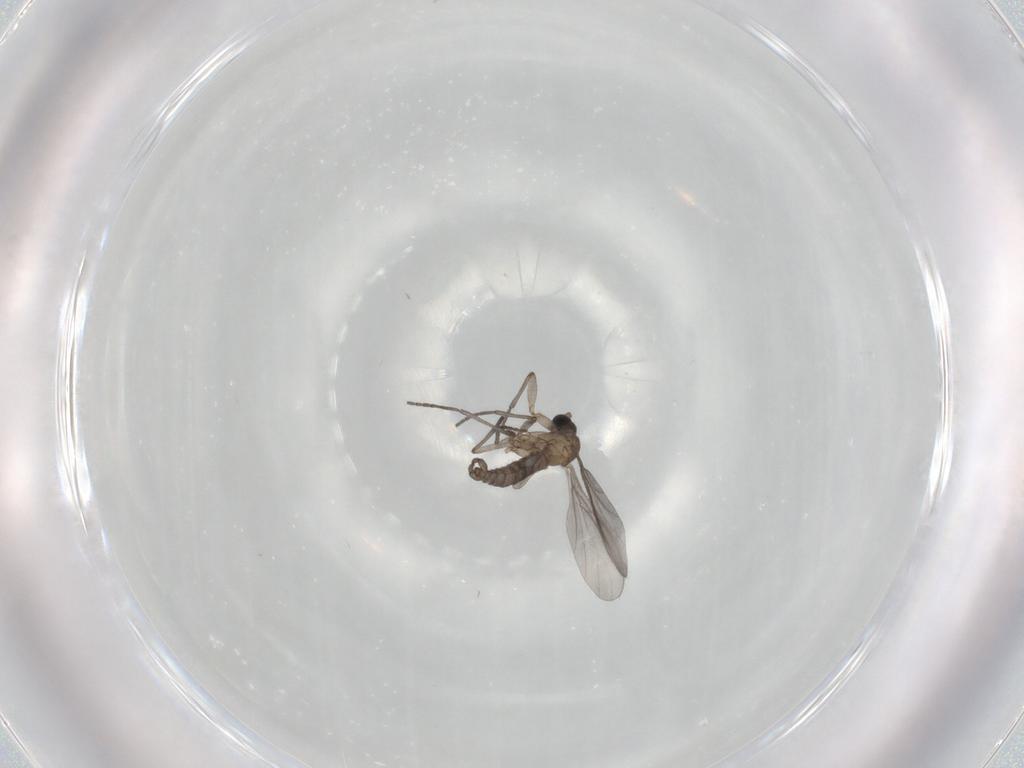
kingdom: Animalia
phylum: Arthropoda
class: Insecta
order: Diptera
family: Sciaridae
